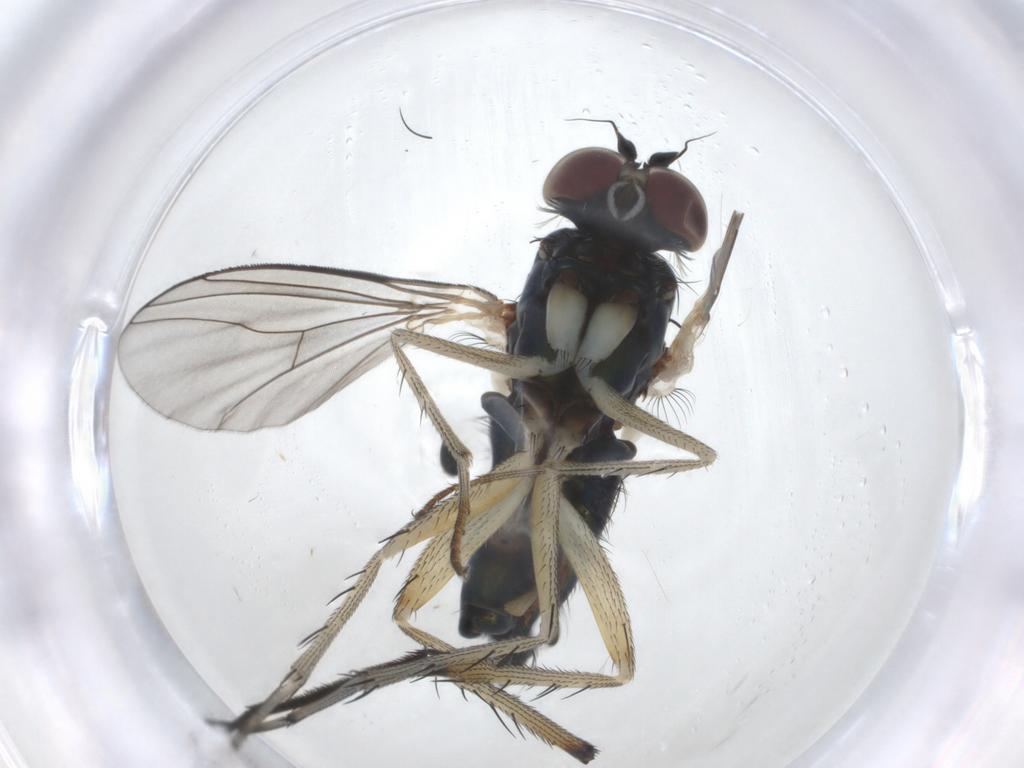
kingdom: Animalia
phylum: Arthropoda
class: Insecta
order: Diptera
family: Dolichopodidae
